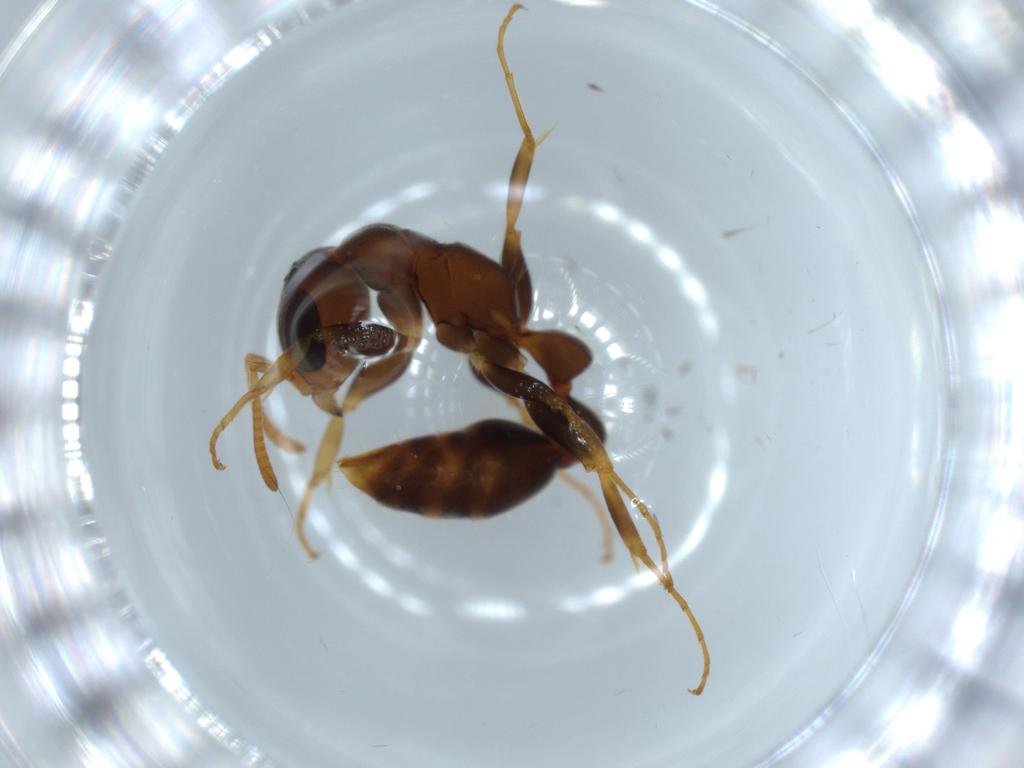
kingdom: Animalia
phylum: Arthropoda
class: Insecta
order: Hymenoptera
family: Formicidae
